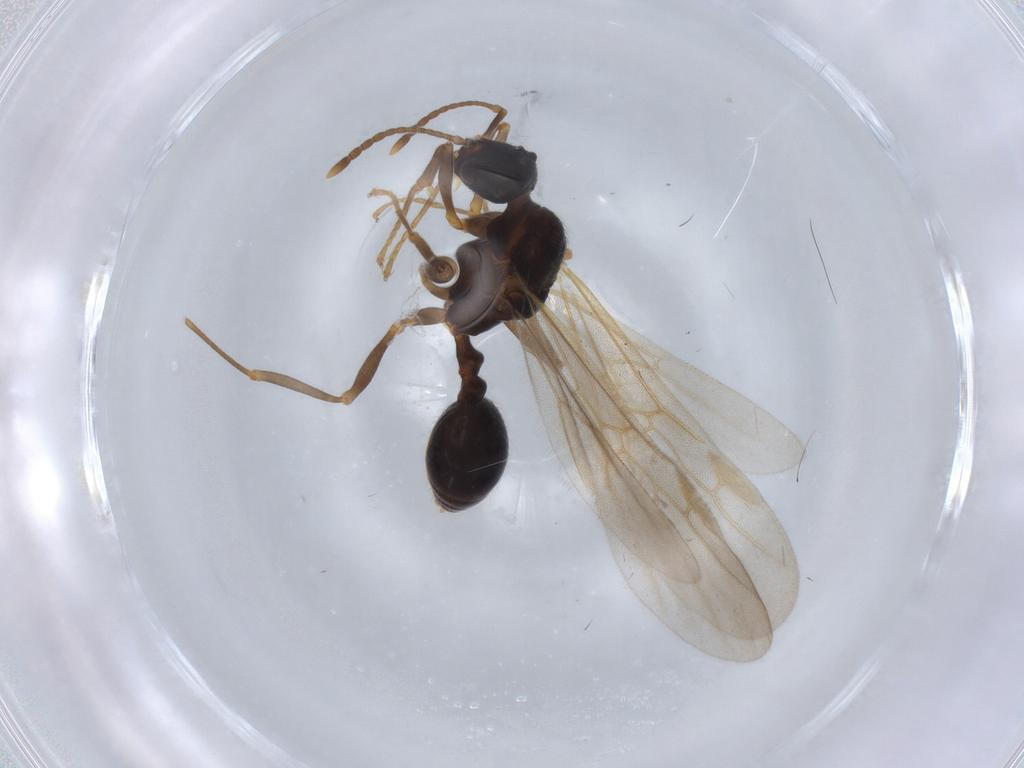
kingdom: Animalia
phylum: Arthropoda
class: Insecta
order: Hymenoptera
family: Formicidae
